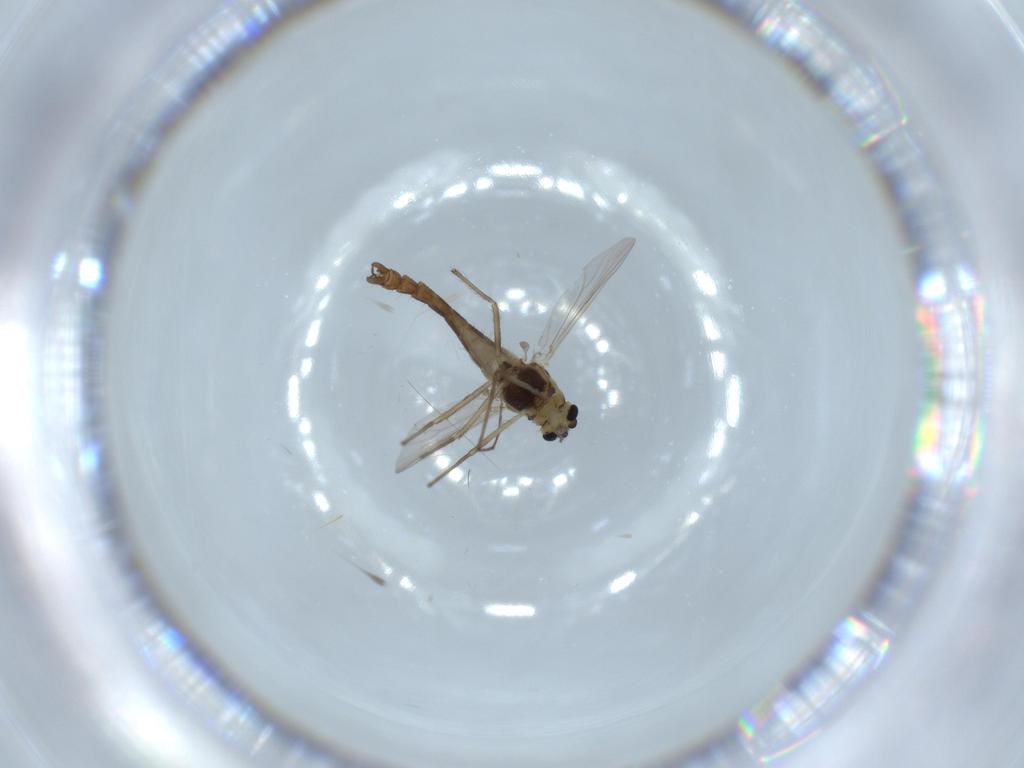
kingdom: Animalia
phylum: Arthropoda
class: Insecta
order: Diptera
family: Chironomidae
